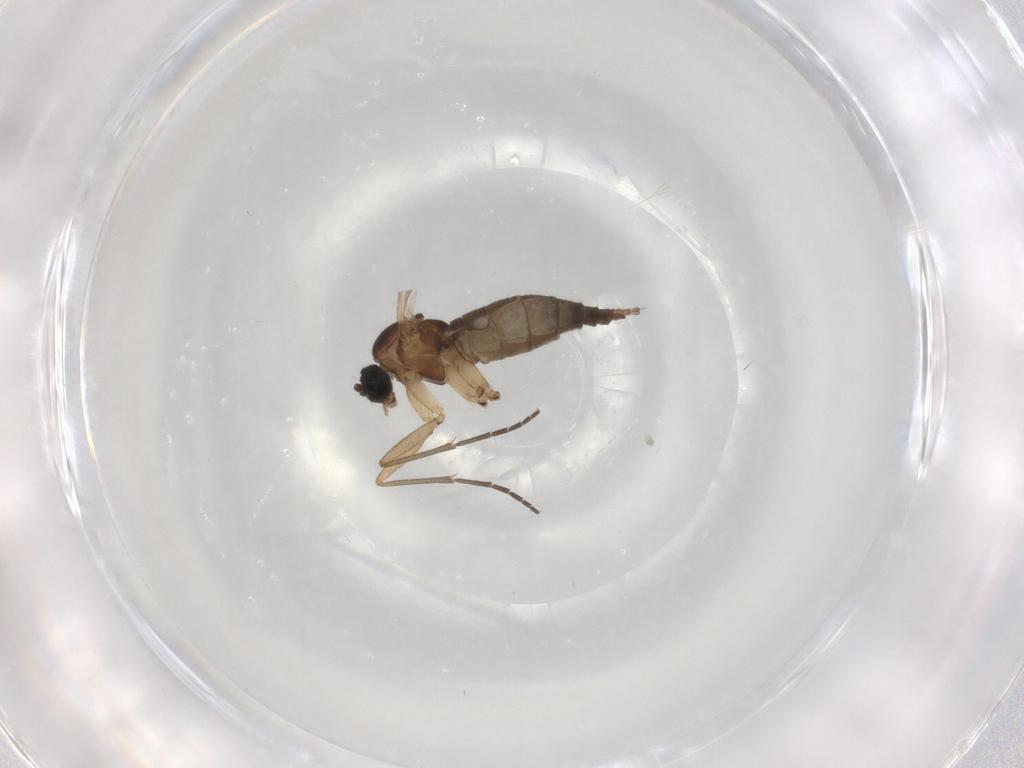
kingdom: Animalia
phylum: Arthropoda
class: Insecta
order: Diptera
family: Sciaridae
